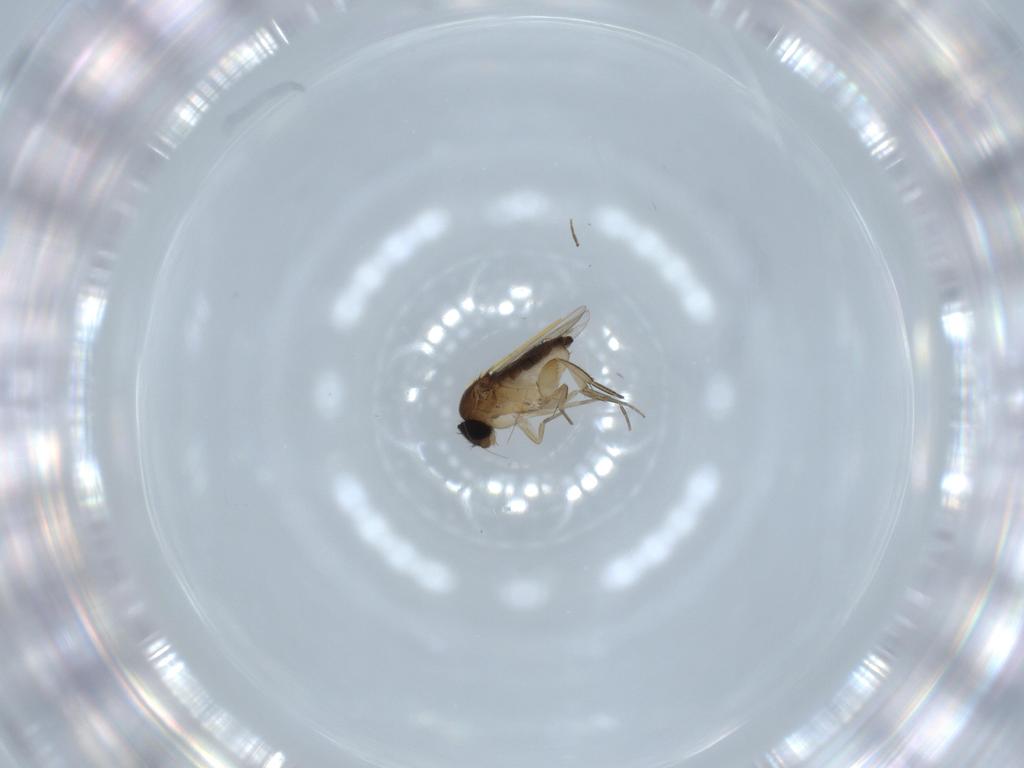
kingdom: Animalia
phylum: Arthropoda
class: Insecta
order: Diptera
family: Phoridae
